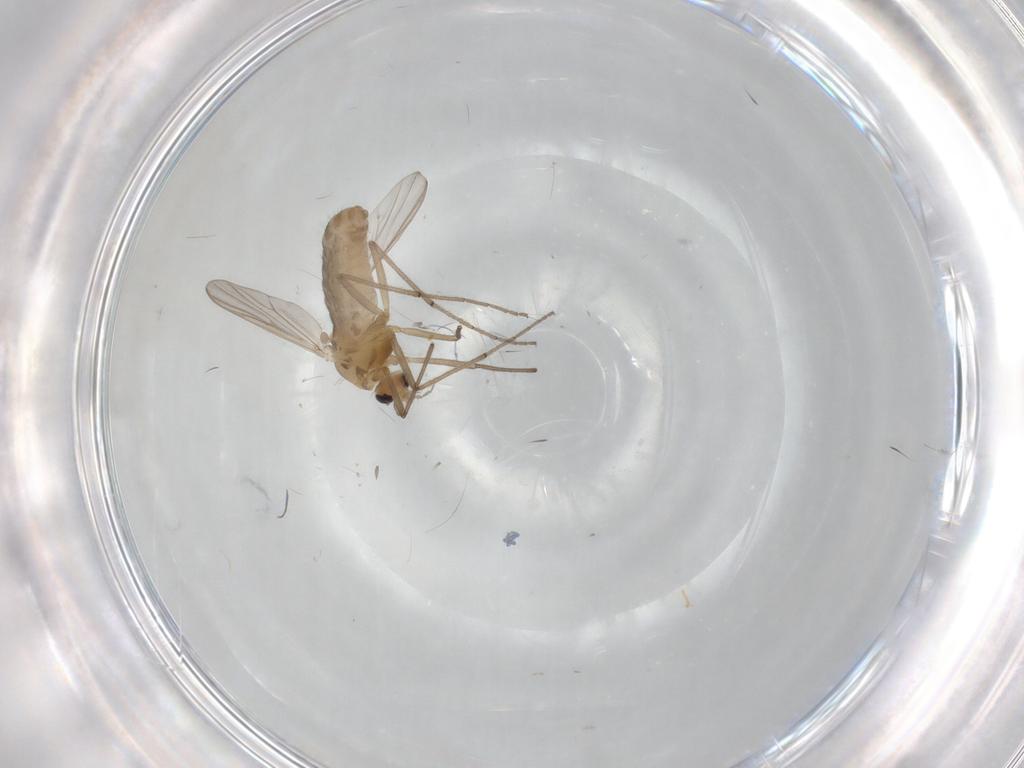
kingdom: Animalia
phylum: Arthropoda
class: Insecta
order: Diptera
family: Chironomidae
